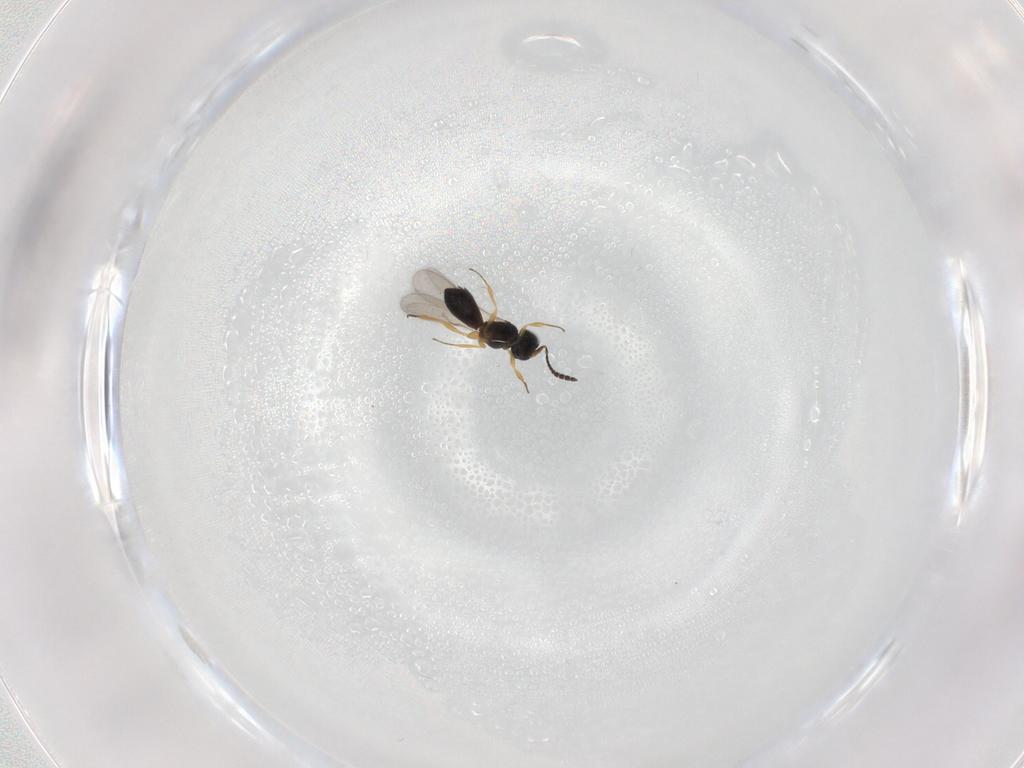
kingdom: Animalia
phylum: Arthropoda
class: Insecta
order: Hymenoptera
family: Scelionidae
